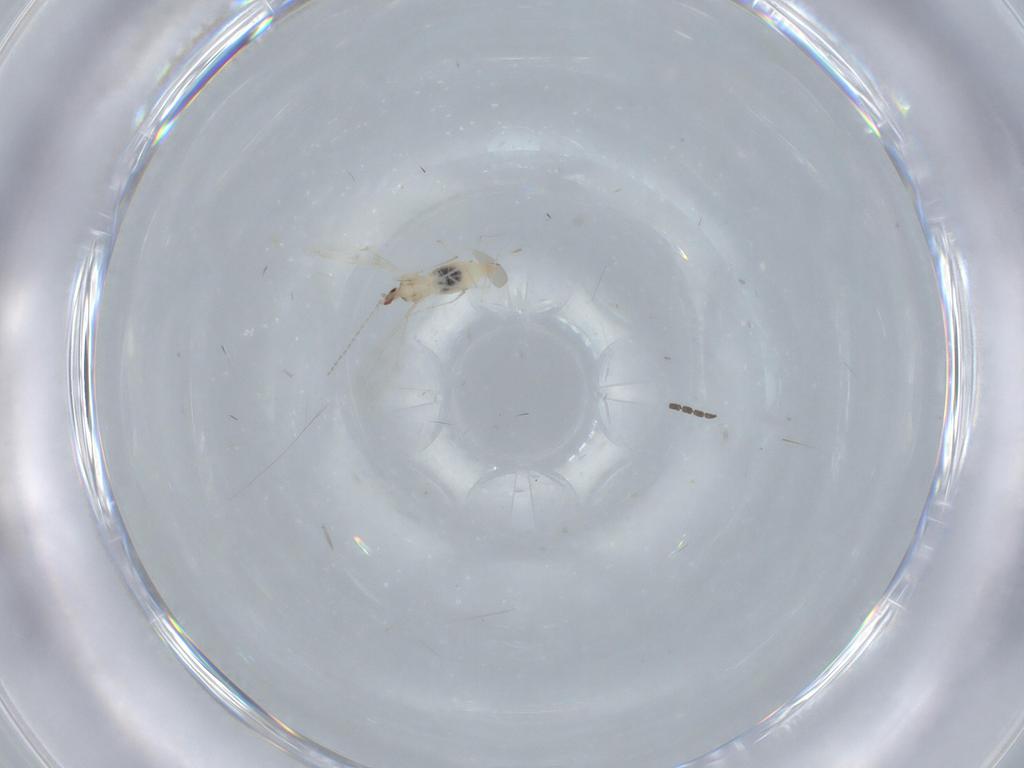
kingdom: Animalia
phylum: Arthropoda
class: Insecta
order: Diptera
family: Cecidomyiidae
